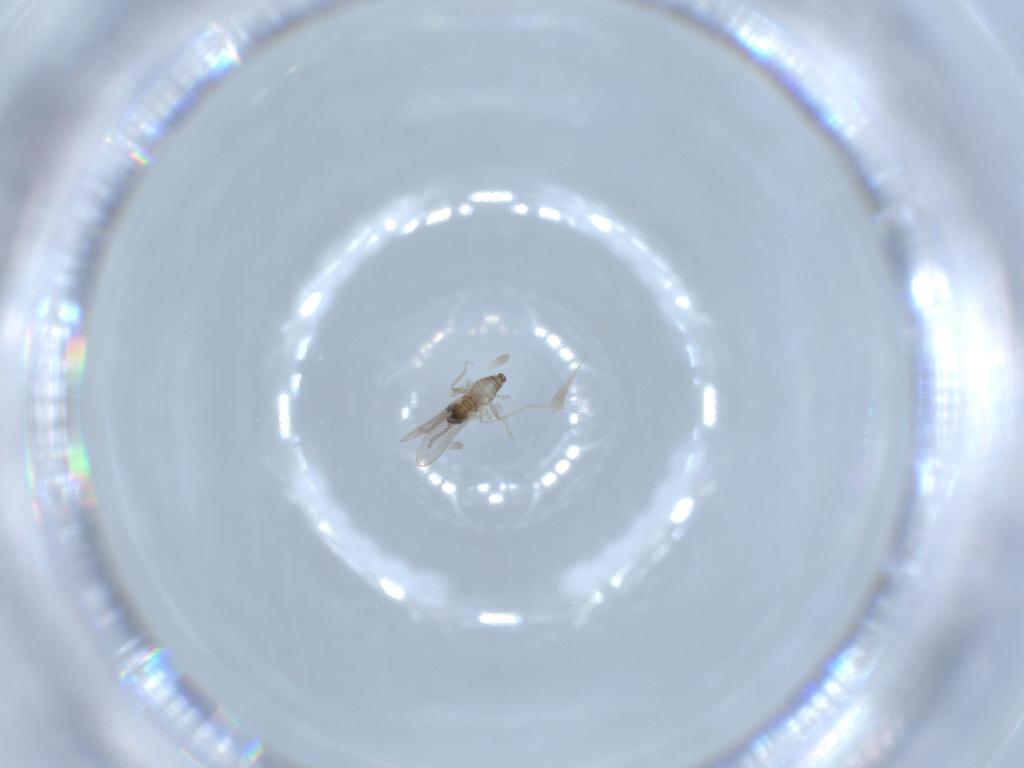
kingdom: Animalia
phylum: Arthropoda
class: Insecta
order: Diptera
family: Cecidomyiidae
